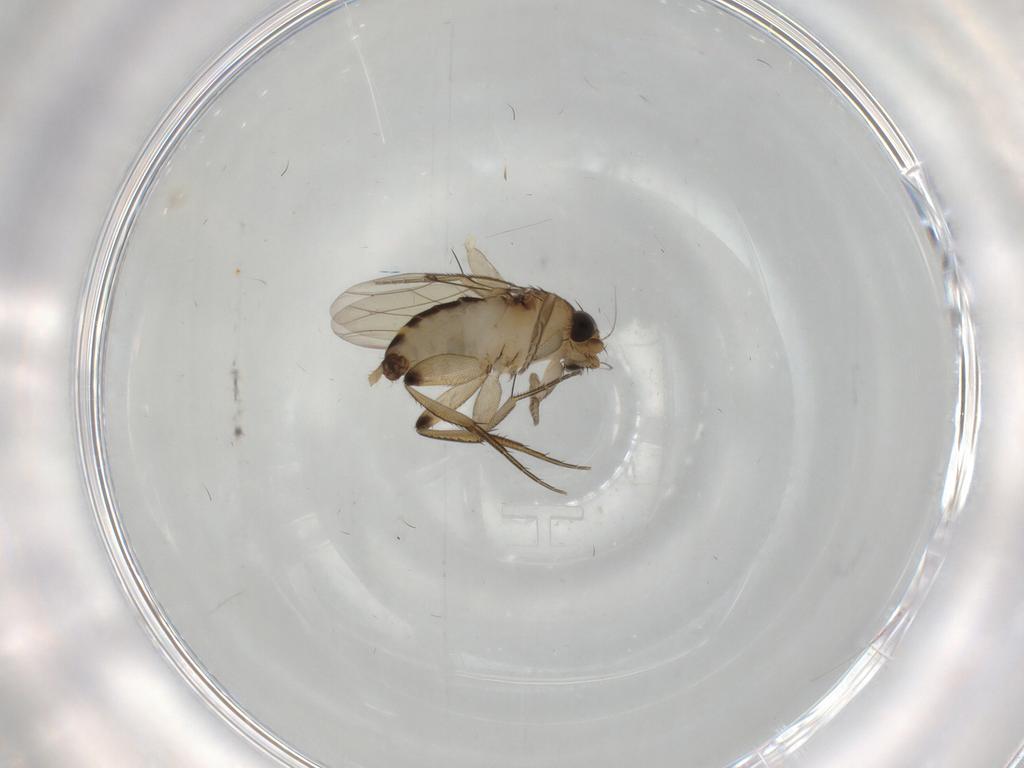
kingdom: Animalia
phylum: Arthropoda
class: Insecta
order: Diptera
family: Phoridae
